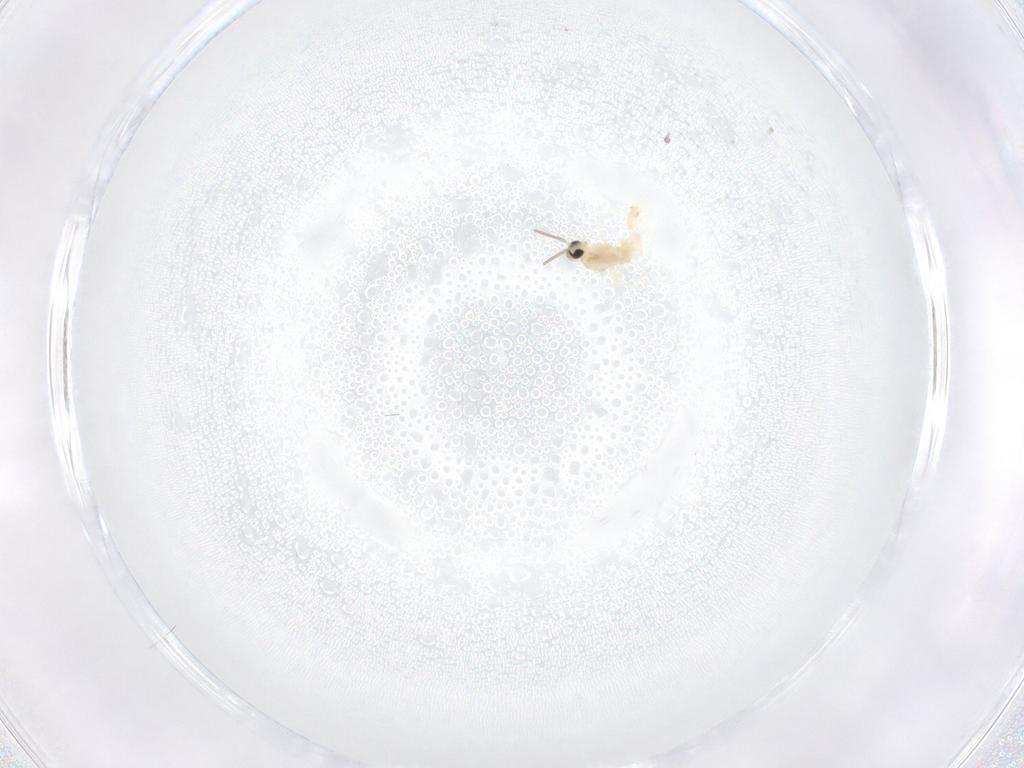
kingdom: Animalia
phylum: Arthropoda
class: Insecta
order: Diptera
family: Cecidomyiidae
